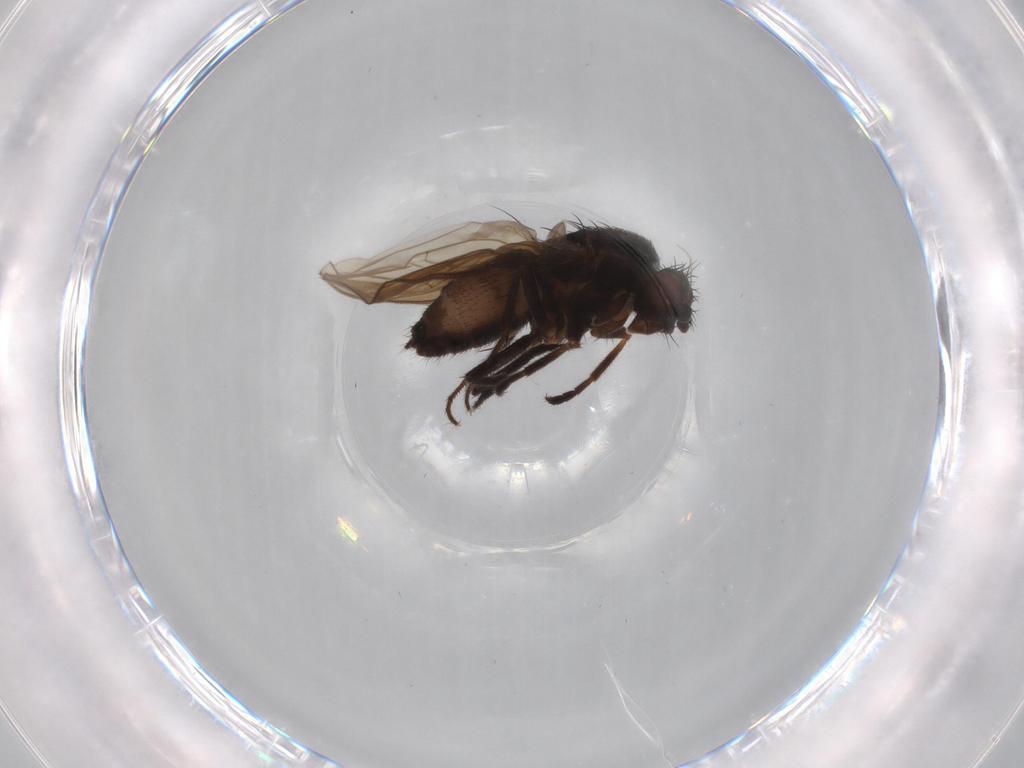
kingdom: Animalia
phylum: Arthropoda
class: Insecta
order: Diptera
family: Sphaeroceridae
